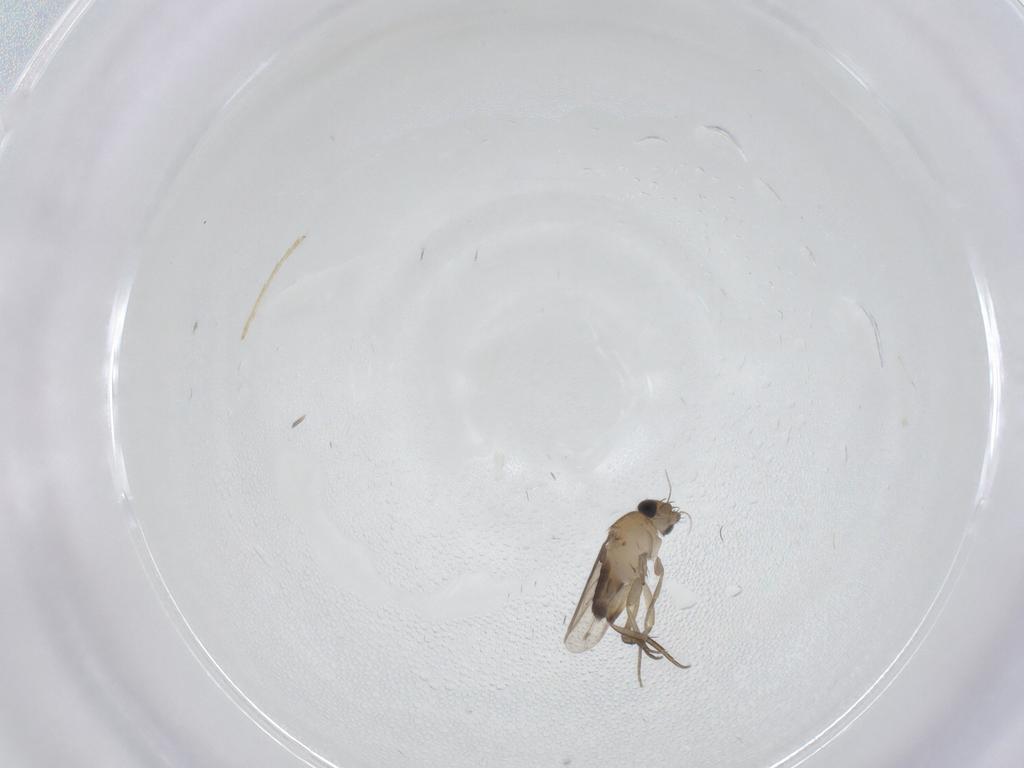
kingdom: Animalia
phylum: Arthropoda
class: Insecta
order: Diptera
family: Phoridae
